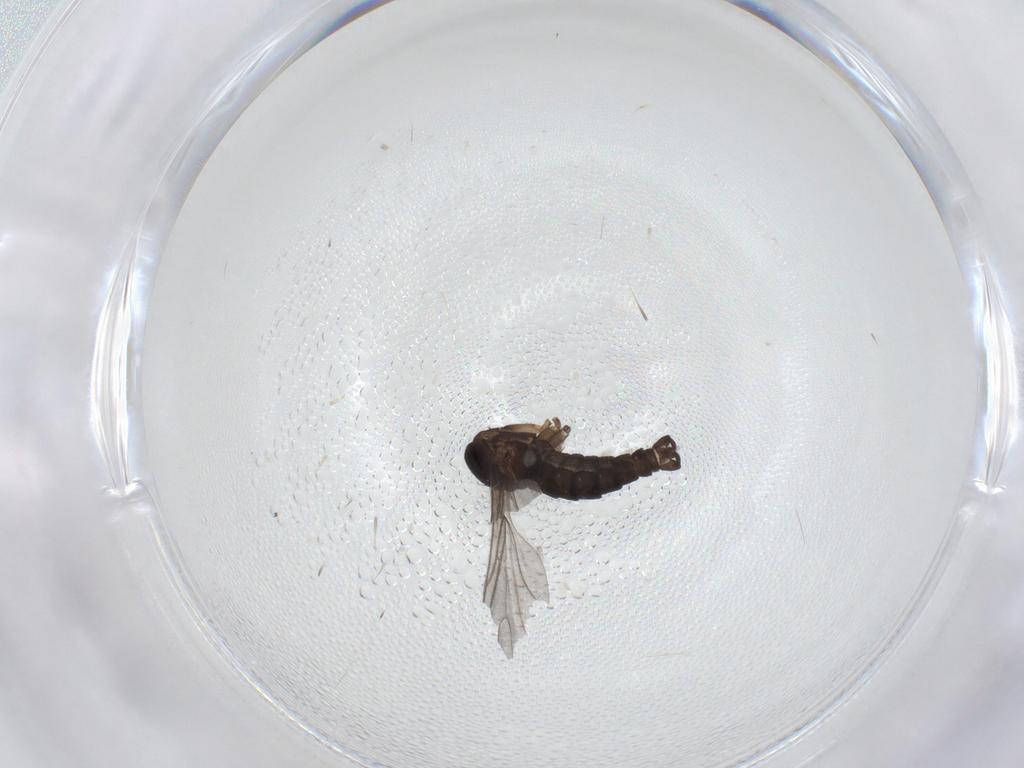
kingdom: Animalia
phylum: Arthropoda
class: Insecta
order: Diptera
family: Sciaridae
